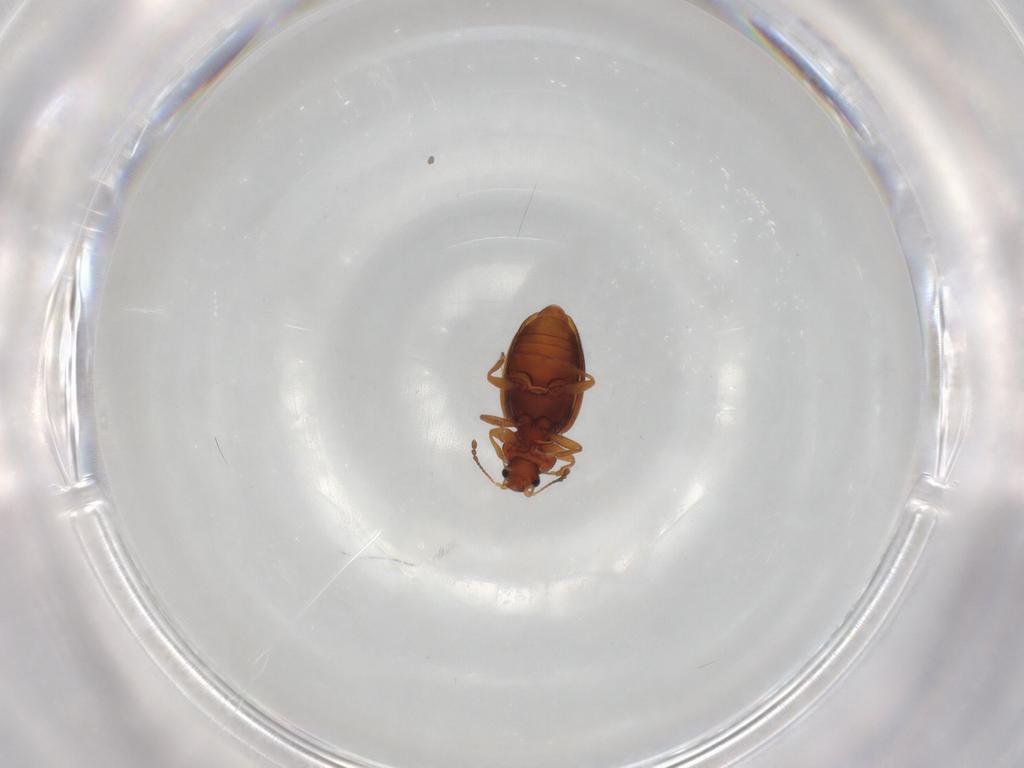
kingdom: Animalia
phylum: Arthropoda
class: Insecta
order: Coleoptera
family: Latridiidae
